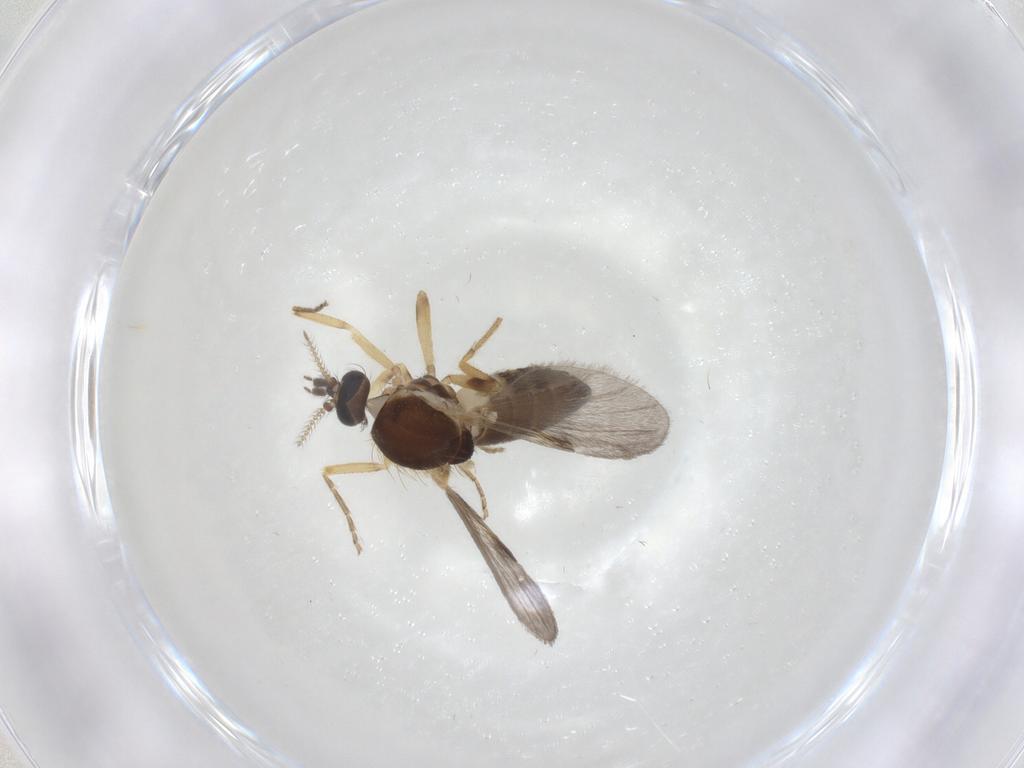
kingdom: Animalia
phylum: Arthropoda
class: Insecta
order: Diptera
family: Ceratopogonidae
